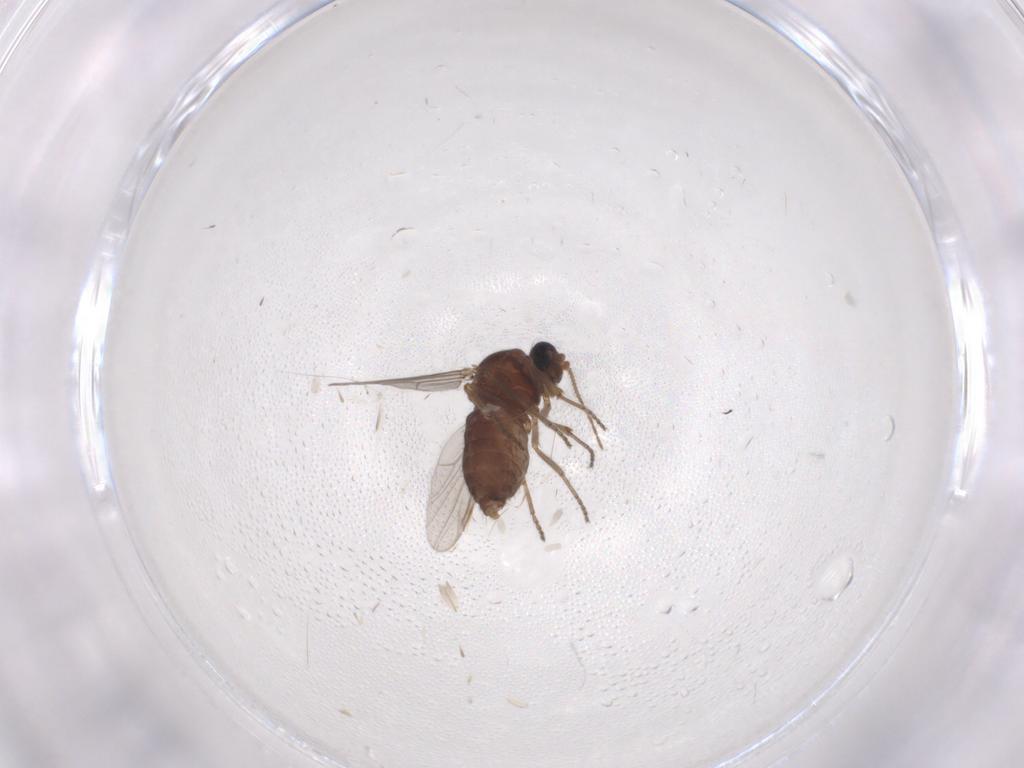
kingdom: Animalia
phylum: Arthropoda
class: Insecta
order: Diptera
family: Ceratopogonidae
